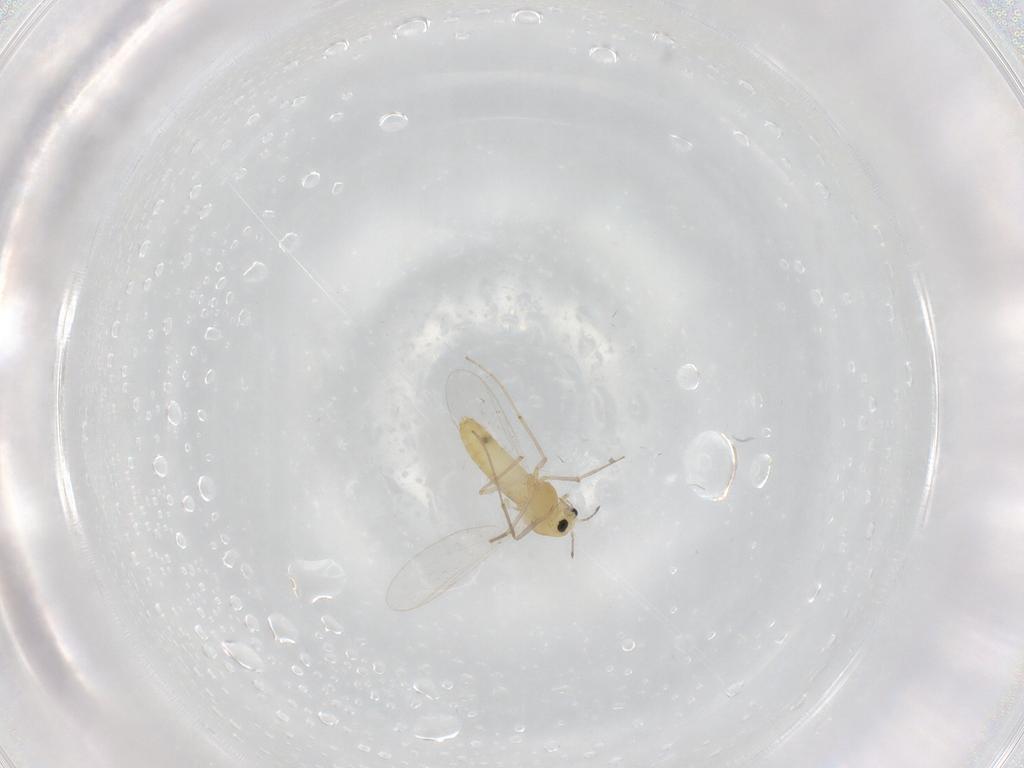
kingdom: Animalia
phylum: Arthropoda
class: Insecta
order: Diptera
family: Chironomidae
